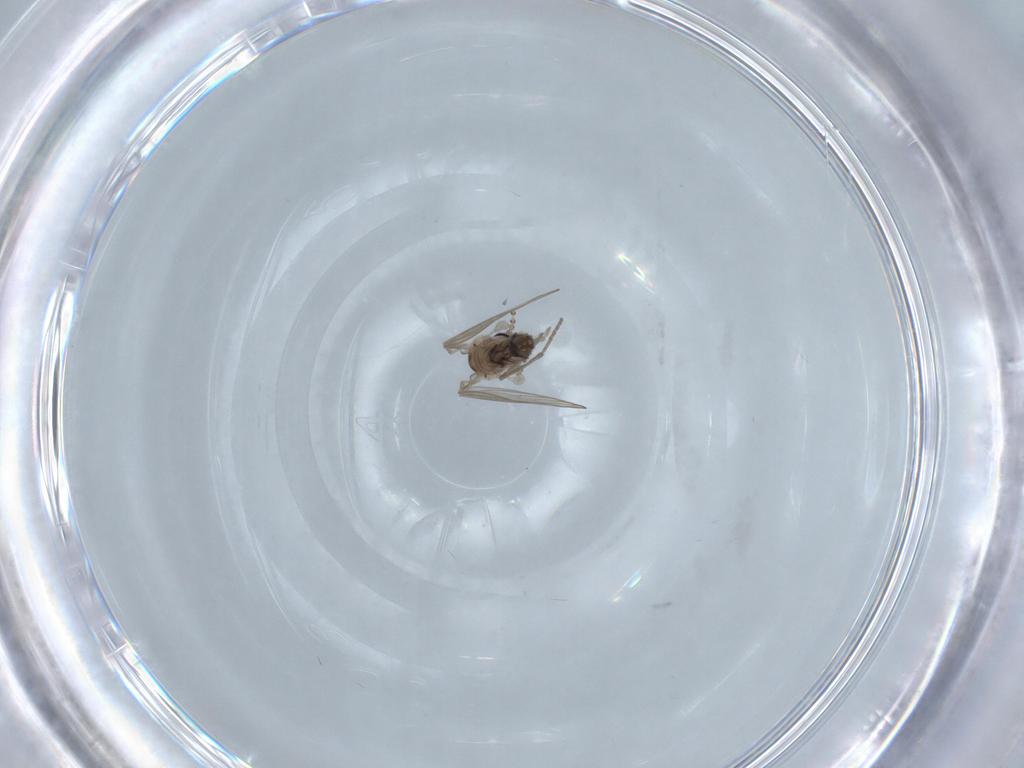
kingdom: Animalia
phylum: Arthropoda
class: Insecta
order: Diptera
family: Psychodidae
